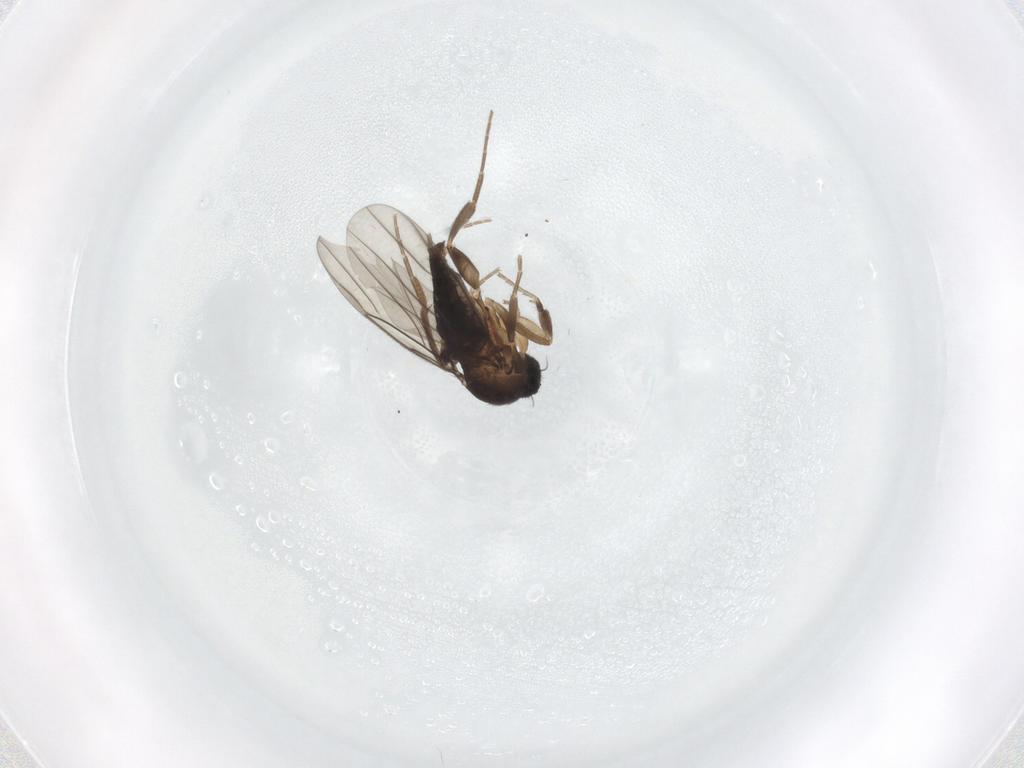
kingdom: Animalia
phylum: Arthropoda
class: Insecta
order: Diptera
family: Phoridae
